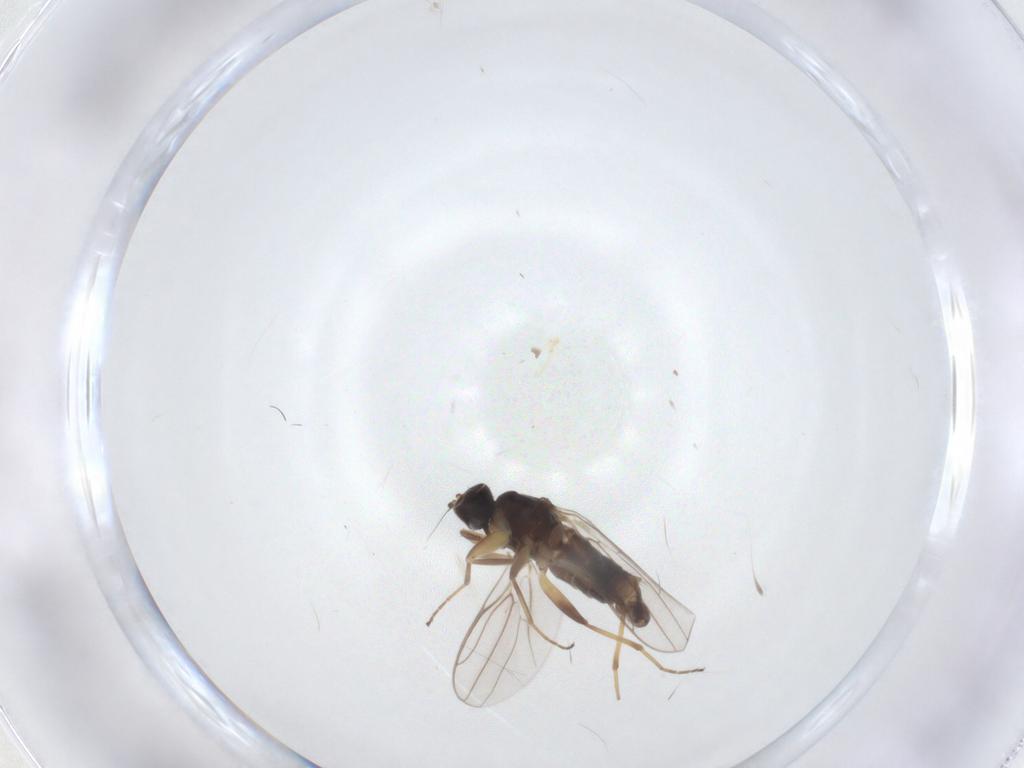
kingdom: Animalia
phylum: Arthropoda
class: Insecta
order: Diptera
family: Hybotidae
